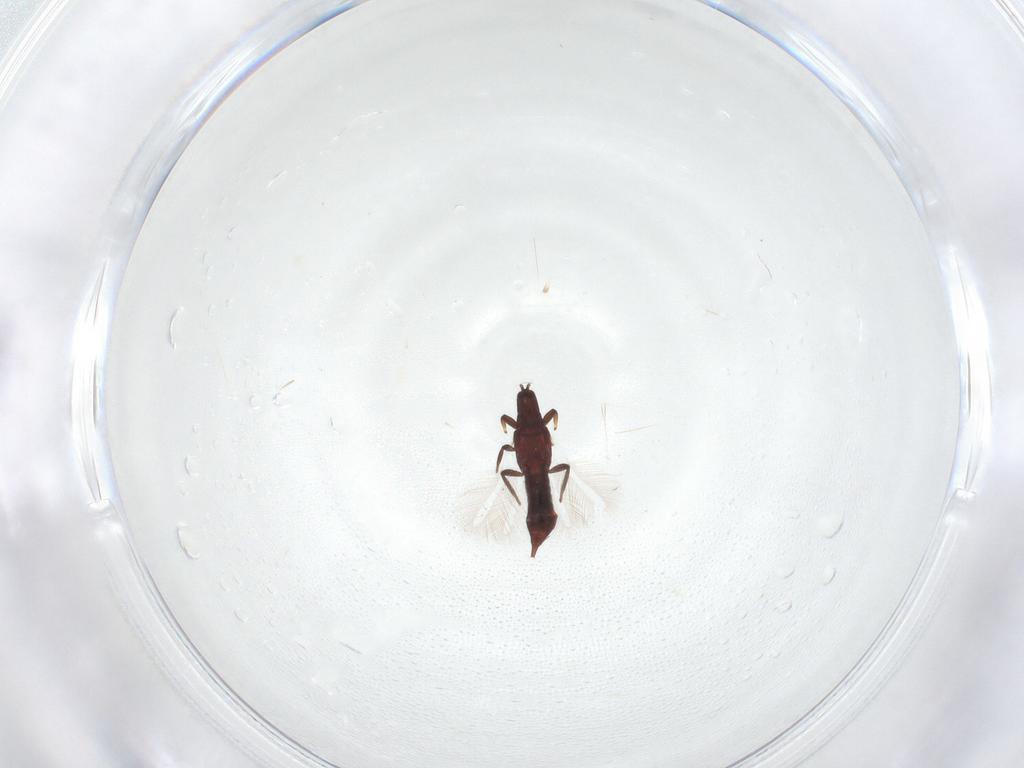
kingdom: Animalia
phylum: Arthropoda
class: Insecta
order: Thysanoptera
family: Phlaeothripidae
